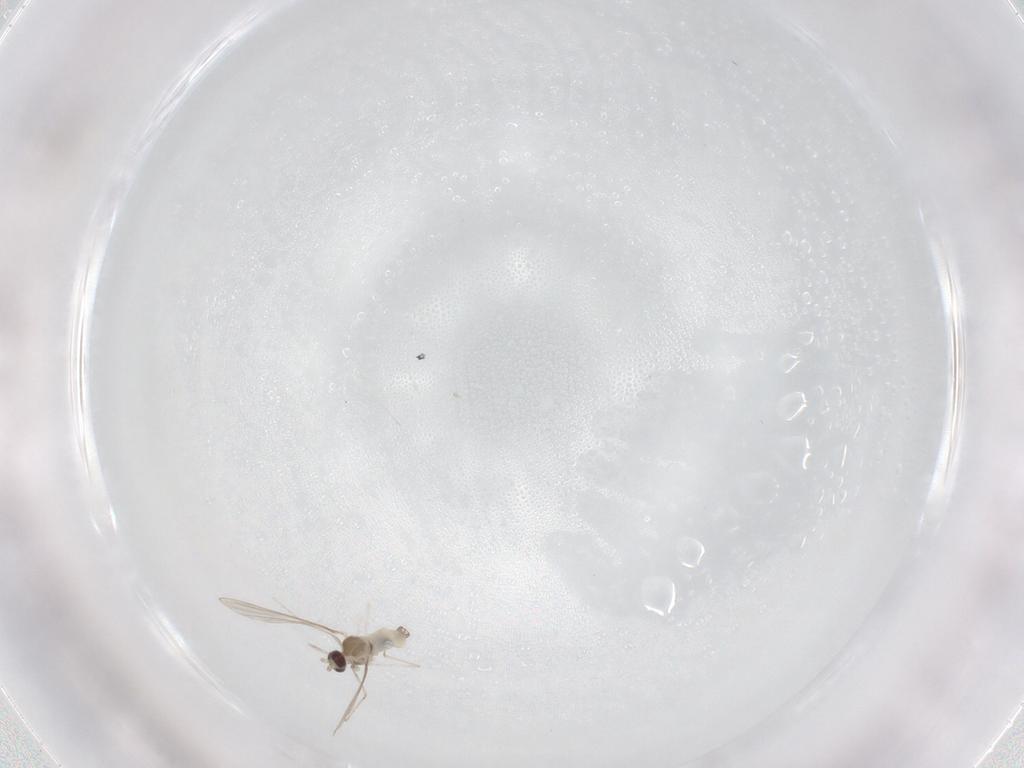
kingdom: Animalia
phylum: Arthropoda
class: Insecta
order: Diptera
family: Cecidomyiidae
